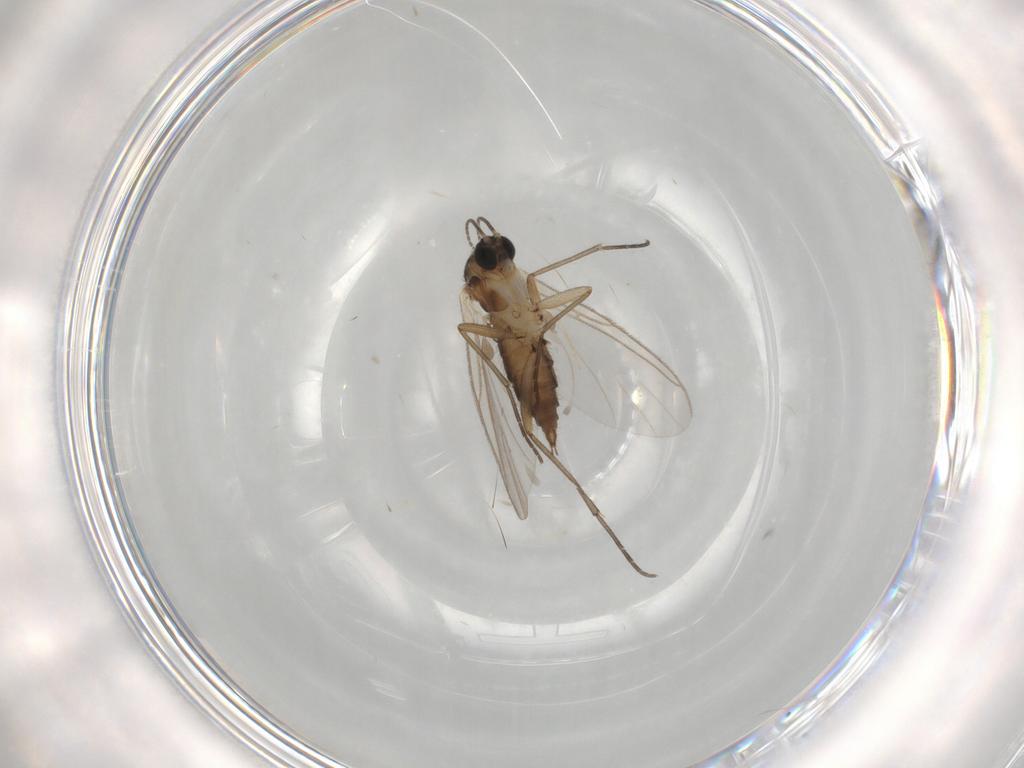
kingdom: Animalia
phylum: Arthropoda
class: Insecta
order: Diptera
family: Sciaridae
